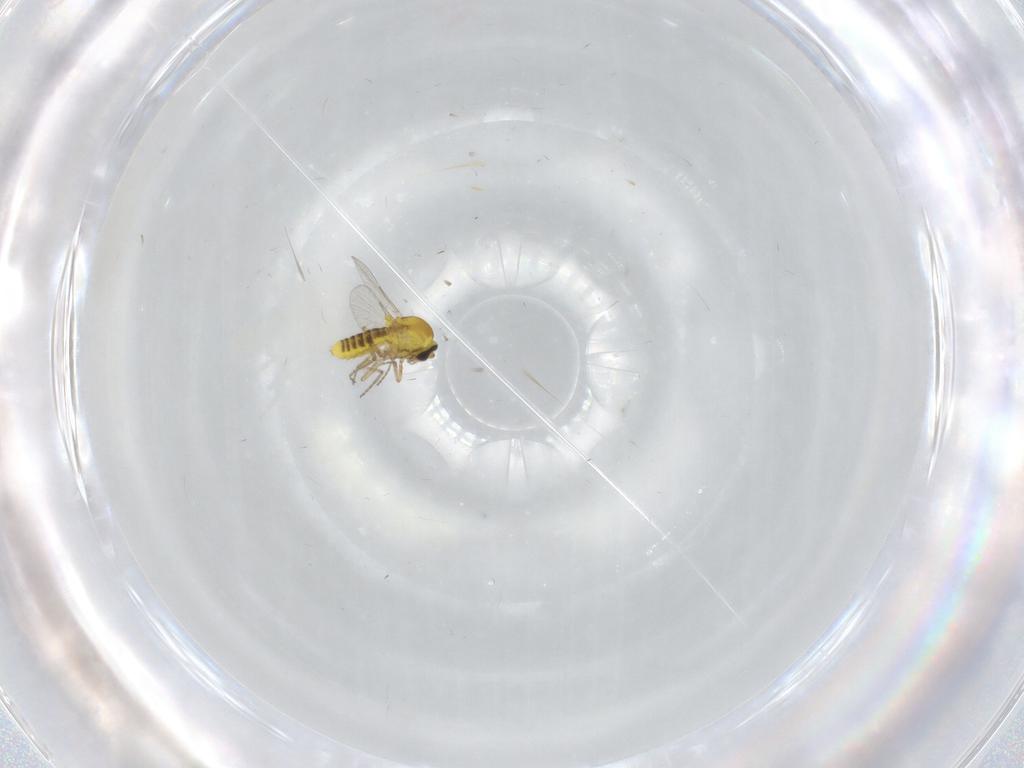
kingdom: Animalia
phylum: Arthropoda
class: Insecta
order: Diptera
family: Ceratopogonidae
